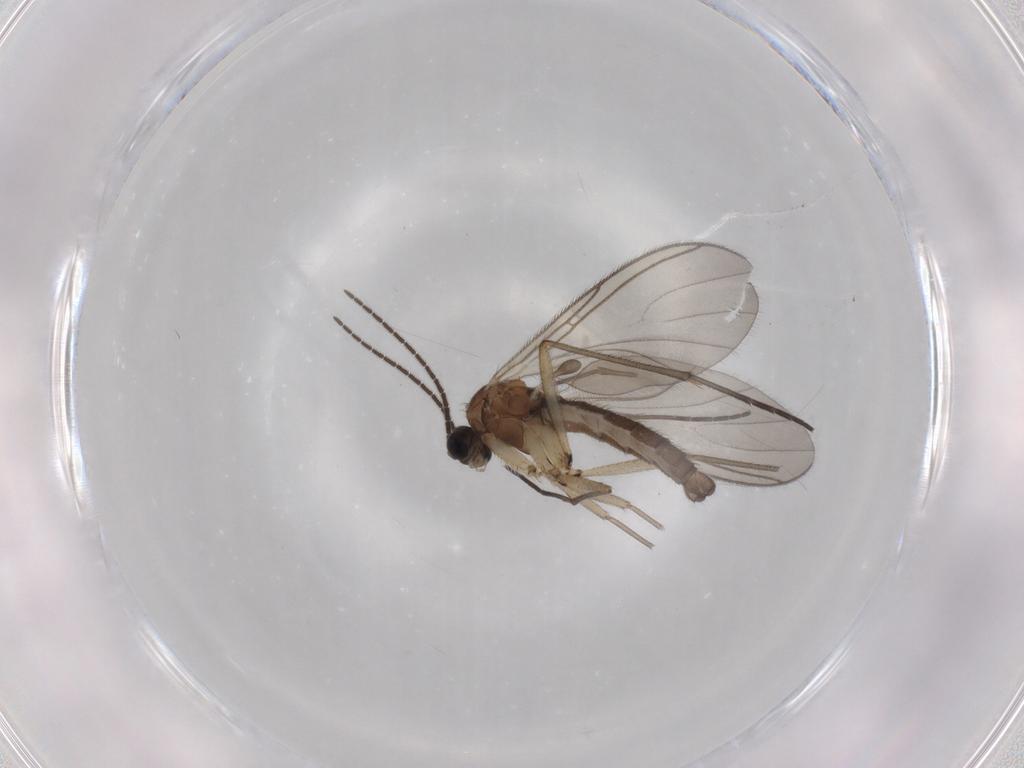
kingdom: Animalia
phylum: Arthropoda
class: Insecta
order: Diptera
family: Sciaridae
